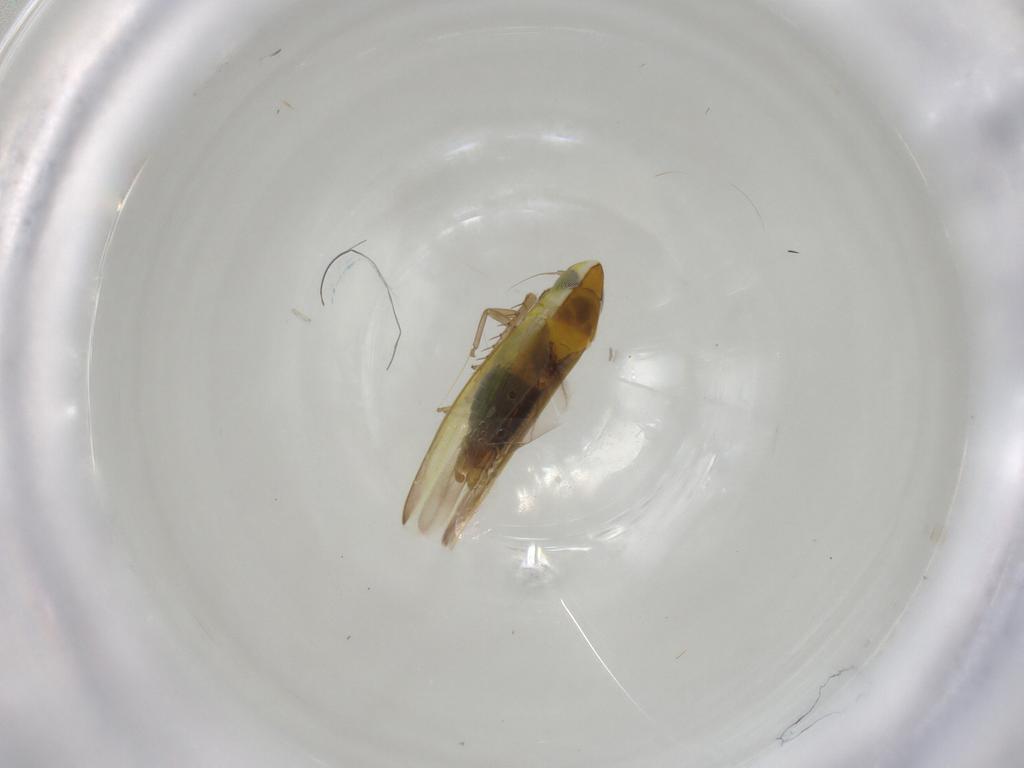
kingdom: Animalia
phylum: Arthropoda
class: Insecta
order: Hemiptera
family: Cicadellidae
